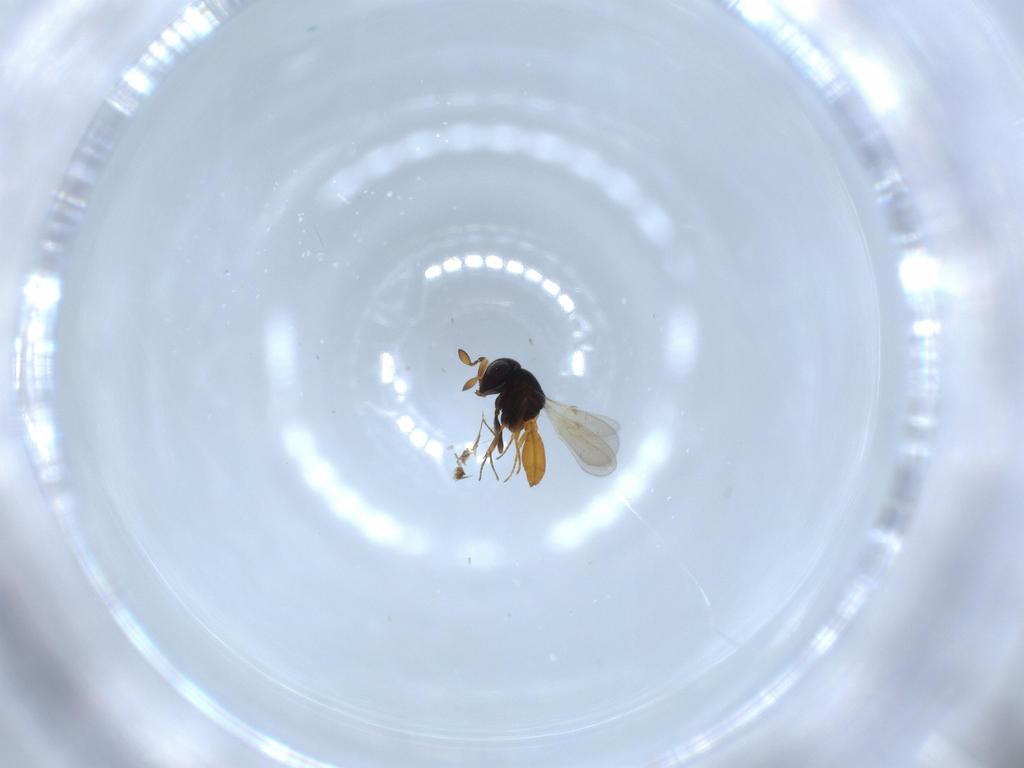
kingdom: Animalia
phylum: Arthropoda
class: Insecta
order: Hymenoptera
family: Scelionidae
